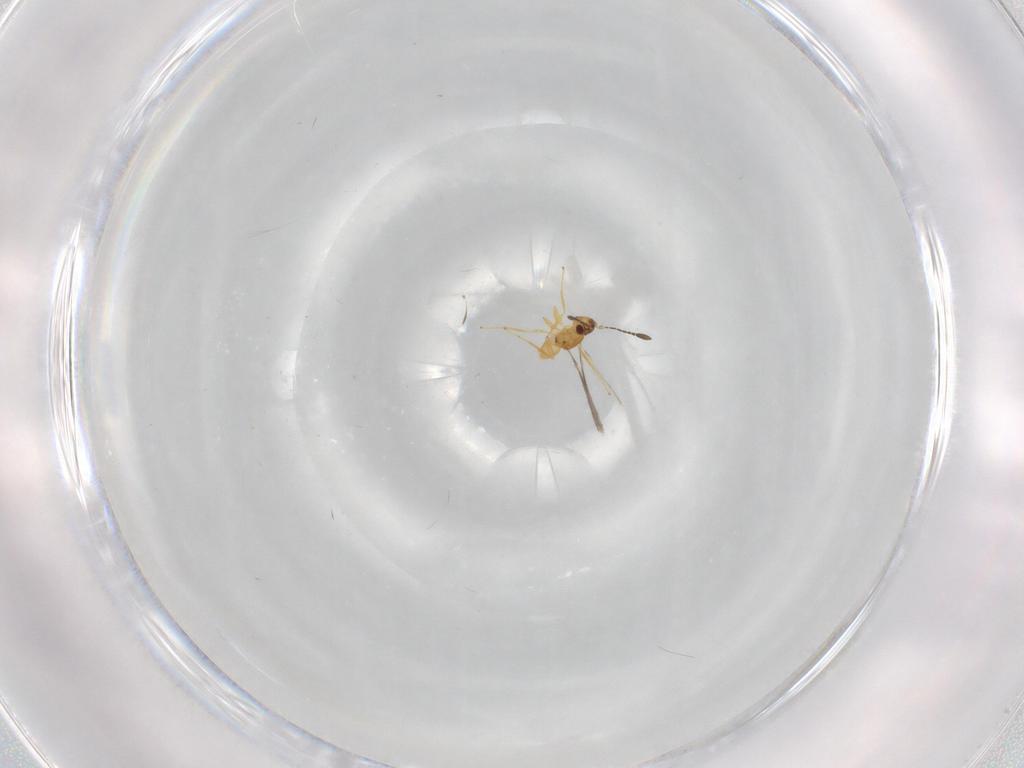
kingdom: Animalia
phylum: Arthropoda
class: Insecta
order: Hymenoptera
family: Mymaridae
